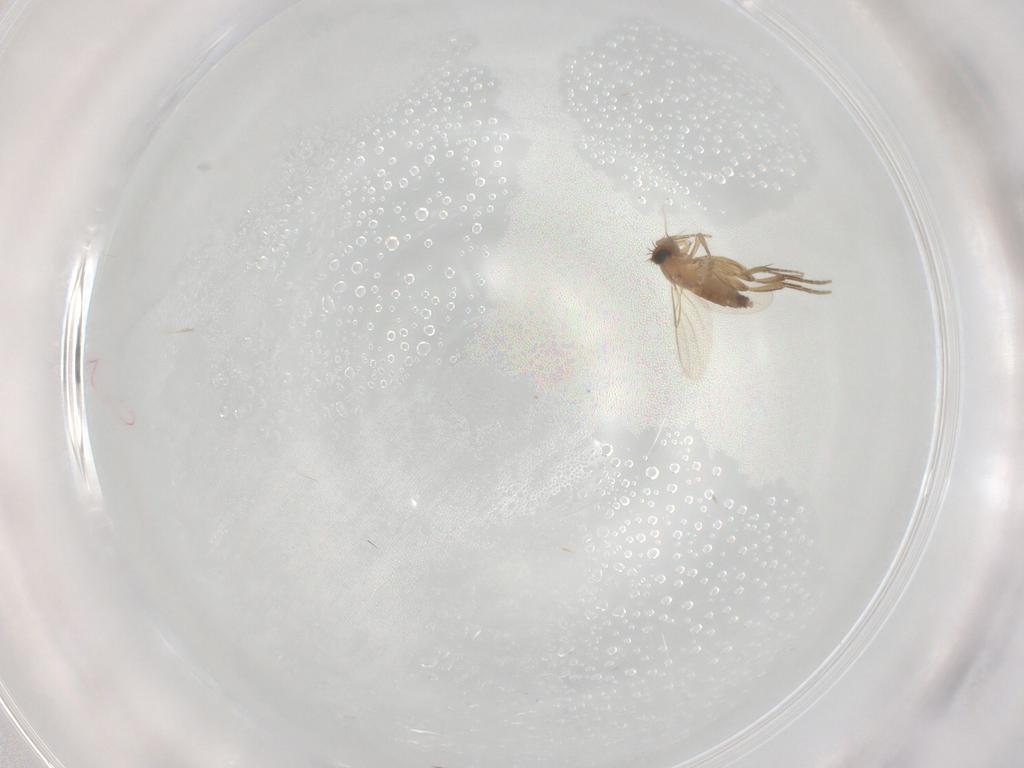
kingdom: Animalia
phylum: Arthropoda
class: Insecta
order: Diptera
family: Phoridae
